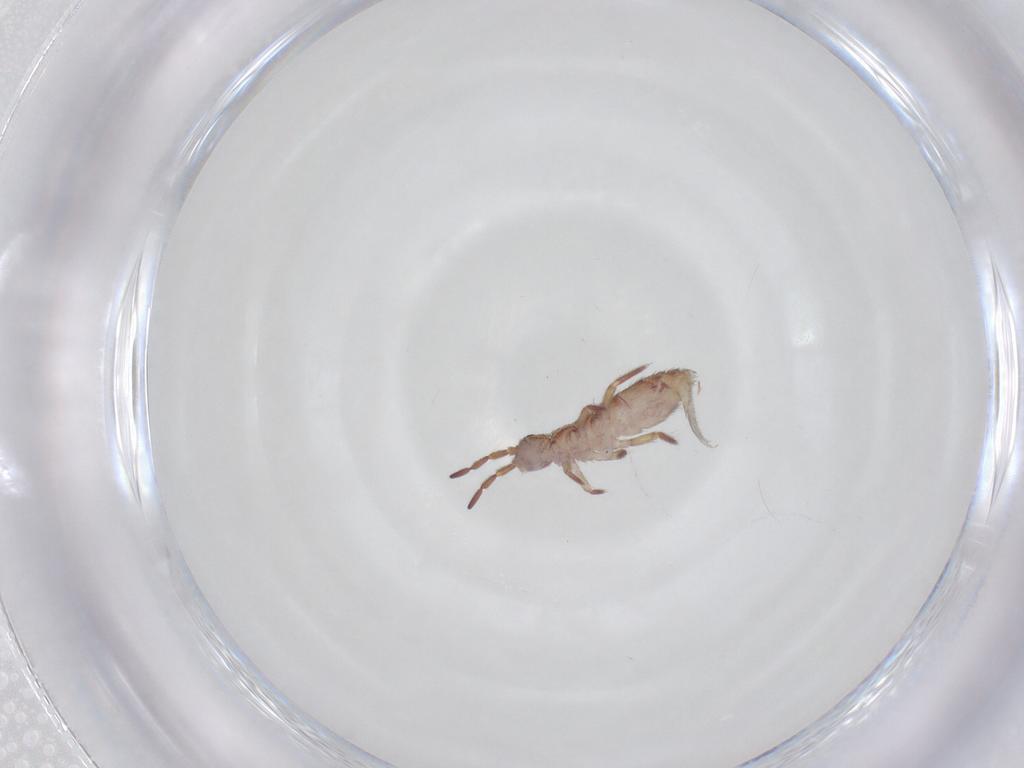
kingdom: Animalia
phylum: Arthropoda
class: Collembola
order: Entomobryomorpha
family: Isotomidae
